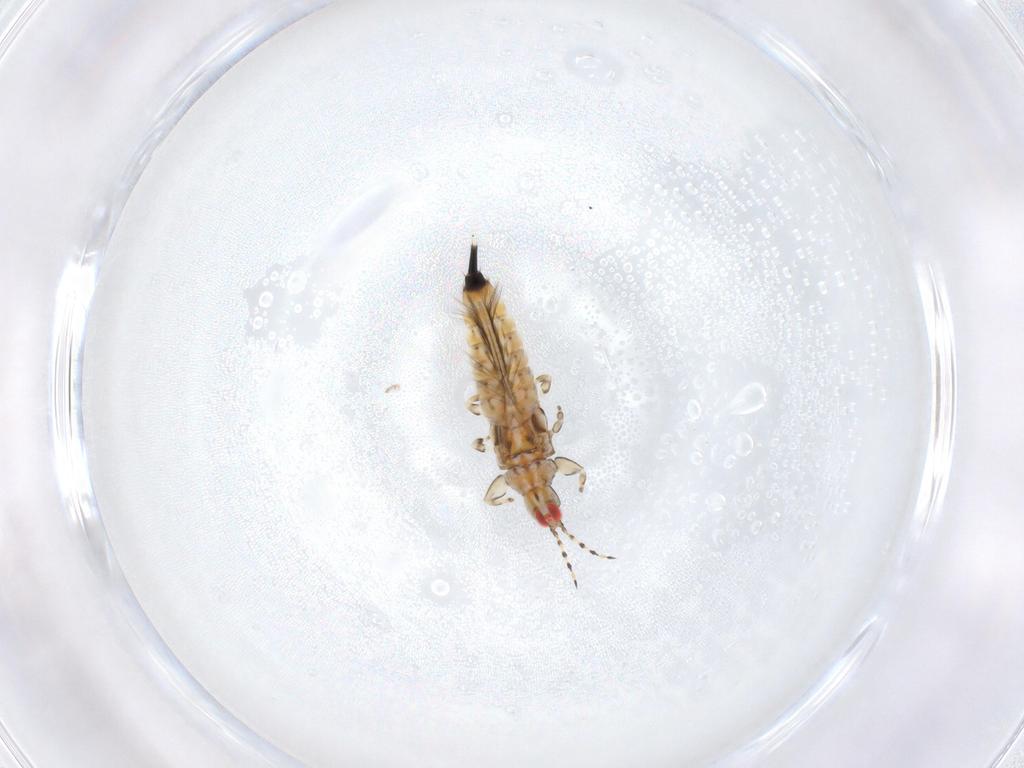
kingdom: Animalia
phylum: Arthropoda
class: Insecta
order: Thysanoptera
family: Phlaeothripidae
